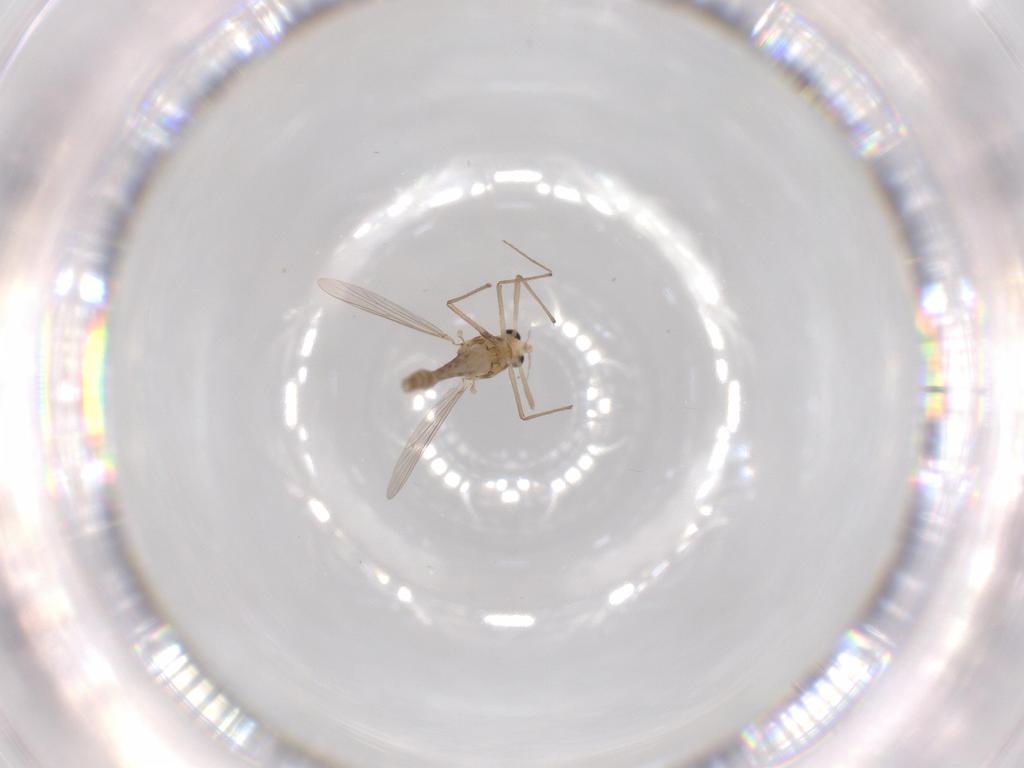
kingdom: Animalia
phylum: Arthropoda
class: Insecta
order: Diptera
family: Chironomidae
